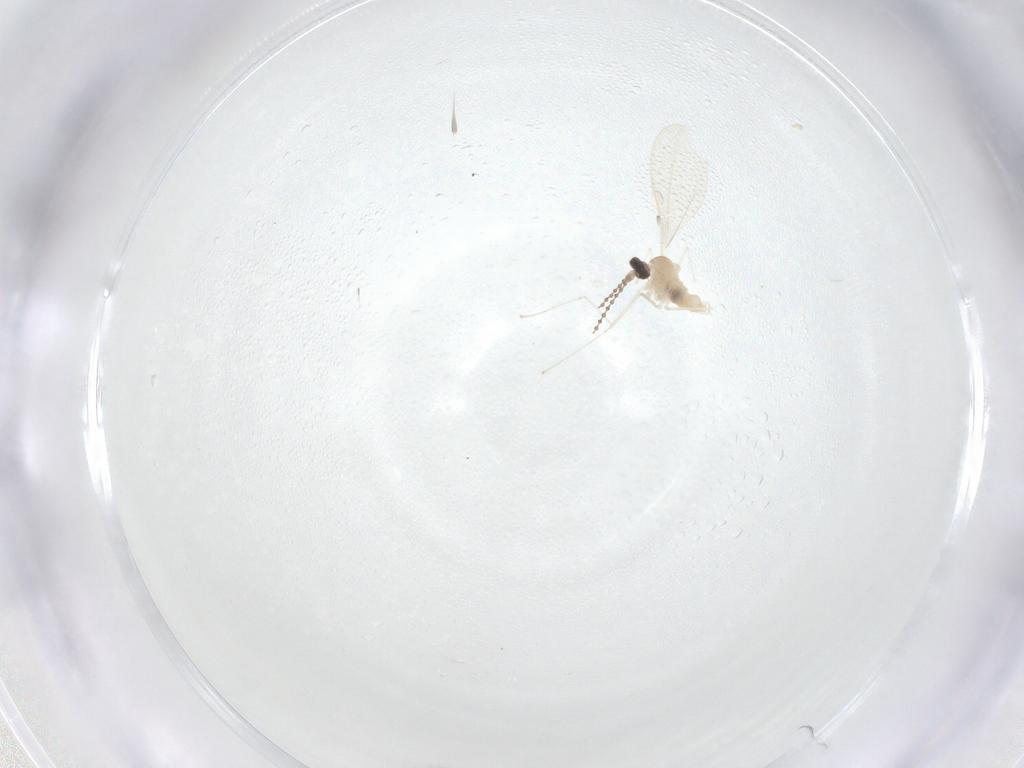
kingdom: Animalia
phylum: Arthropoda
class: Insecta
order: Diptera
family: Cecidomyiidae
